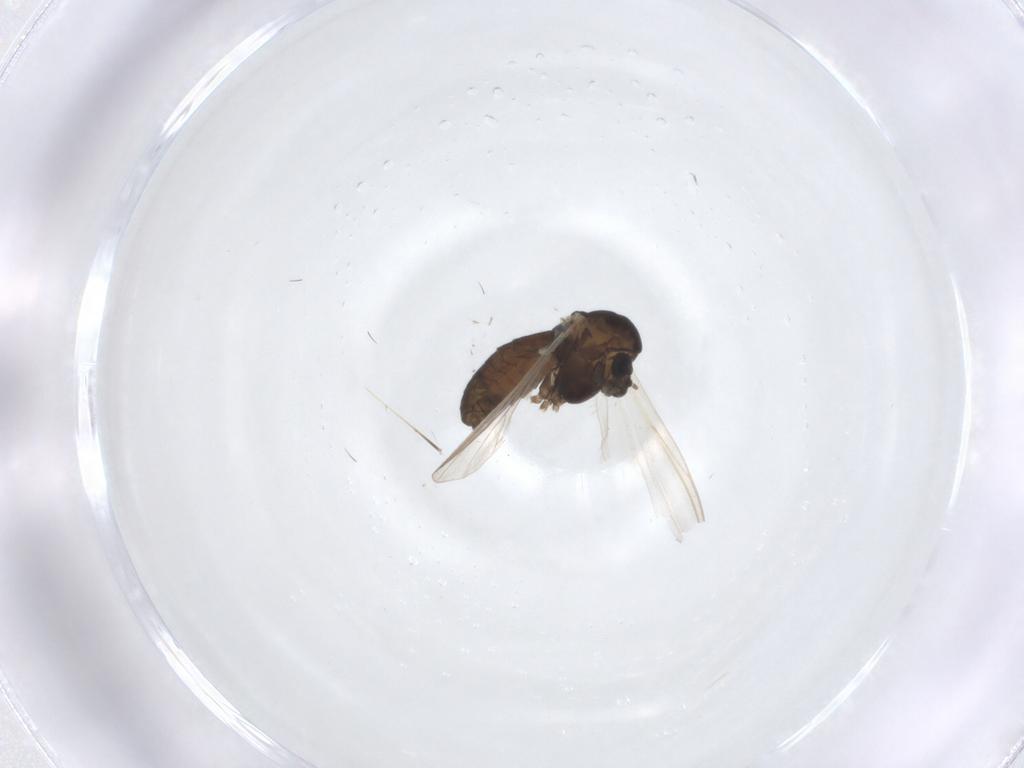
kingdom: Animalia
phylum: Arthropoda
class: Insecta
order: Diptera
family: Chironomidae
